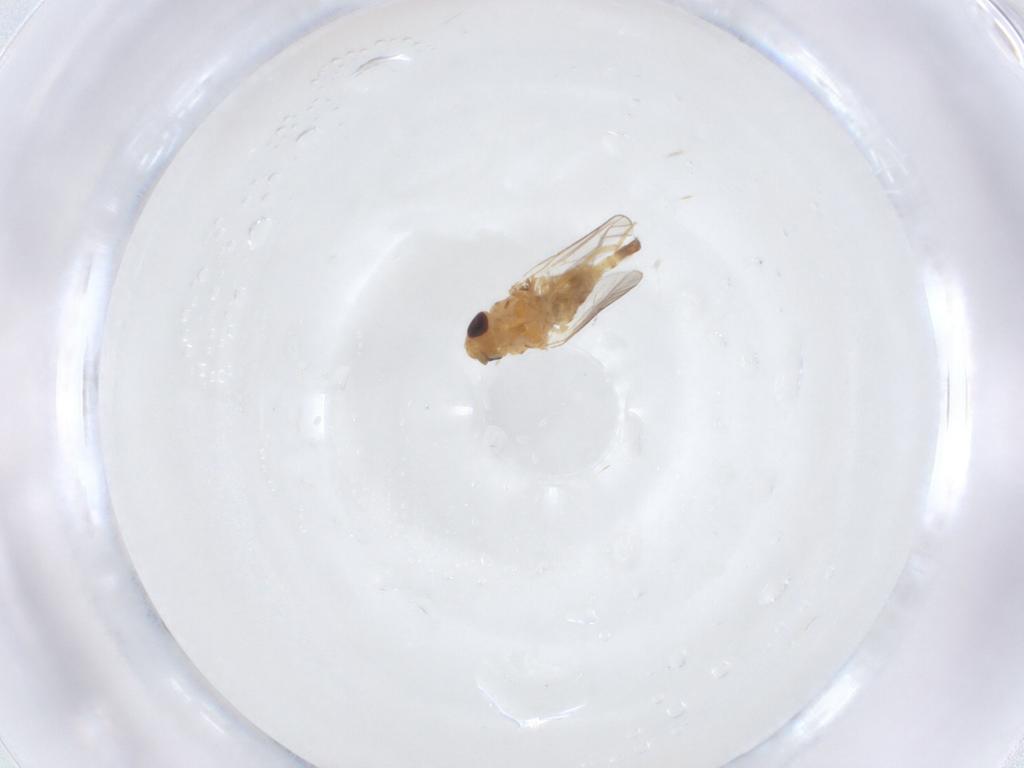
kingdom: Animalia
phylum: Arthropoda
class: Insecta
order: Diptera
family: Chloropidae
